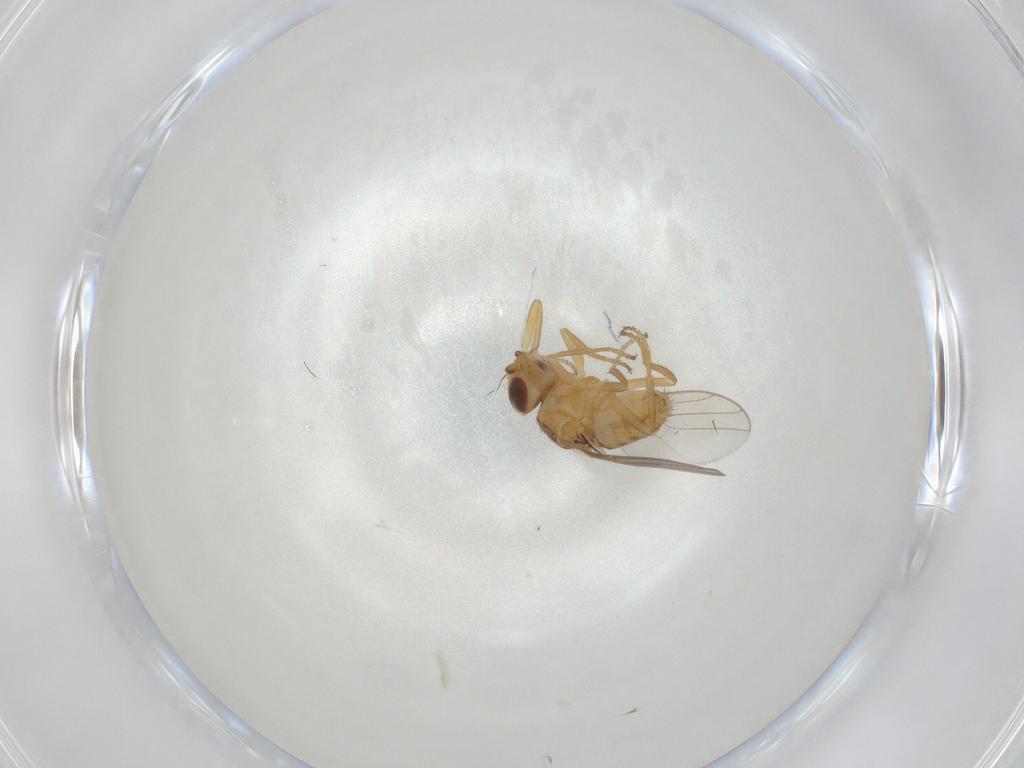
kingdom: Animalia
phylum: Arthropoda
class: Insecta
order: Diptera
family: Chloropidae
